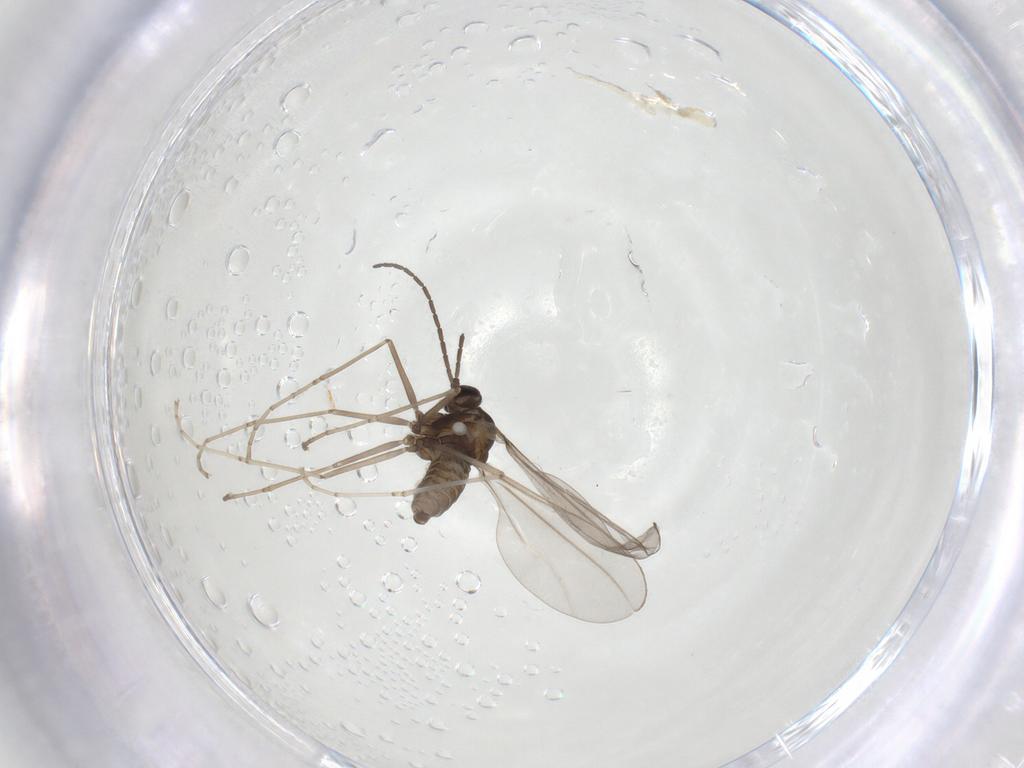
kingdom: Animalia
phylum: Arthropoda
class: Insecta
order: Diptera
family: Cecidomyiidae
